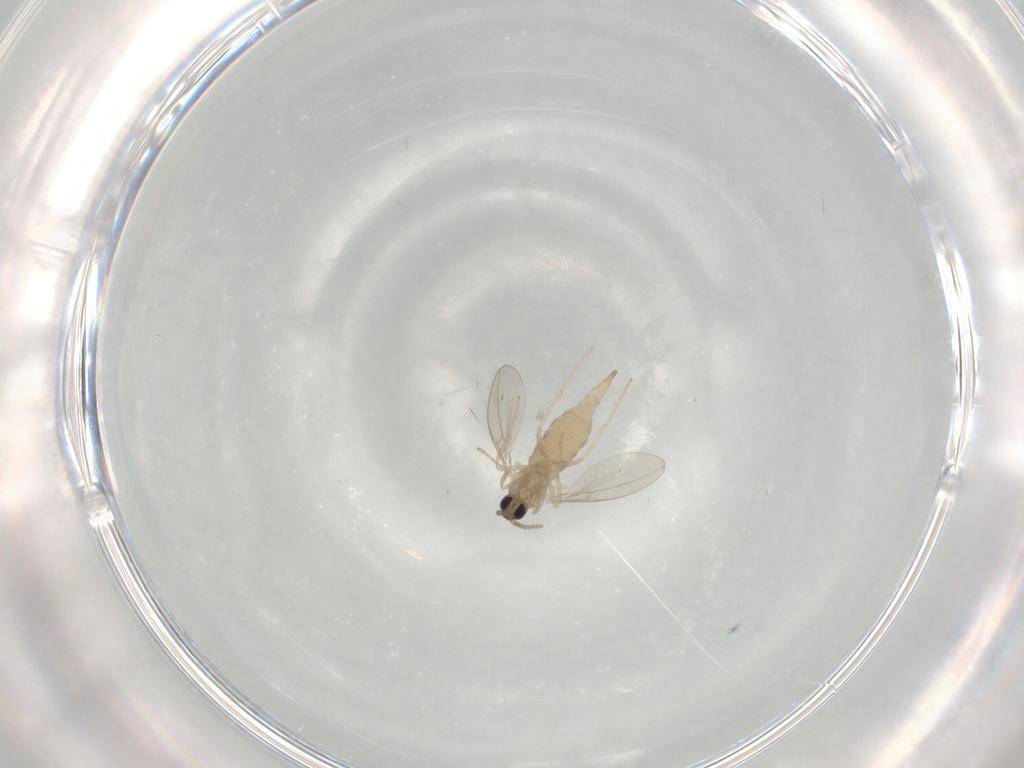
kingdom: Animalia
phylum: Arthropoda
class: Insecta
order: Diptera
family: Cecidomyiidae
